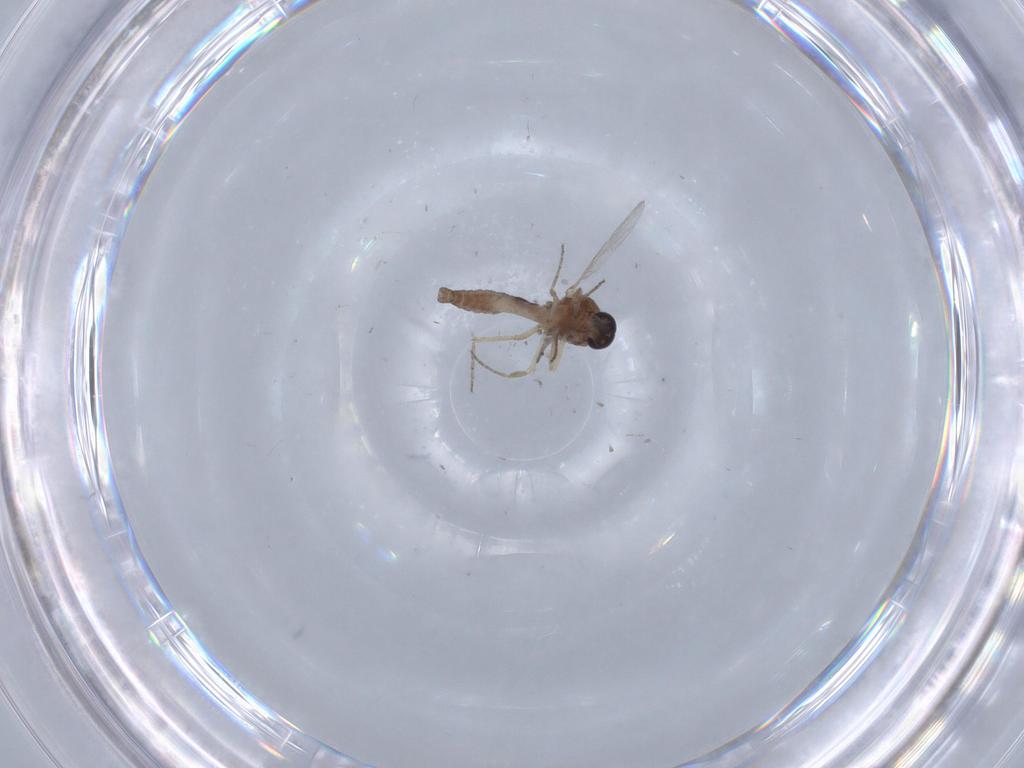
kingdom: Animalia
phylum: Arthropoda
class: Insecta
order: Diptera
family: Ceratopogonidae
